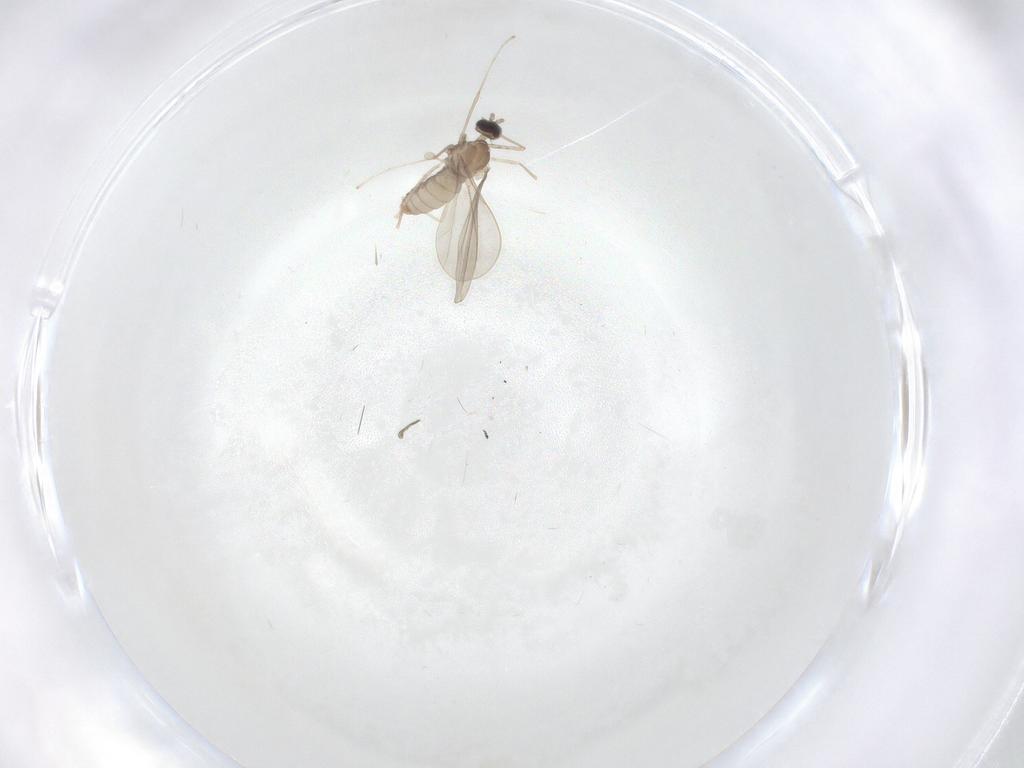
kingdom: Animalia
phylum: Arthropoda
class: Insecta
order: Diptera
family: Cecidomyiidae
